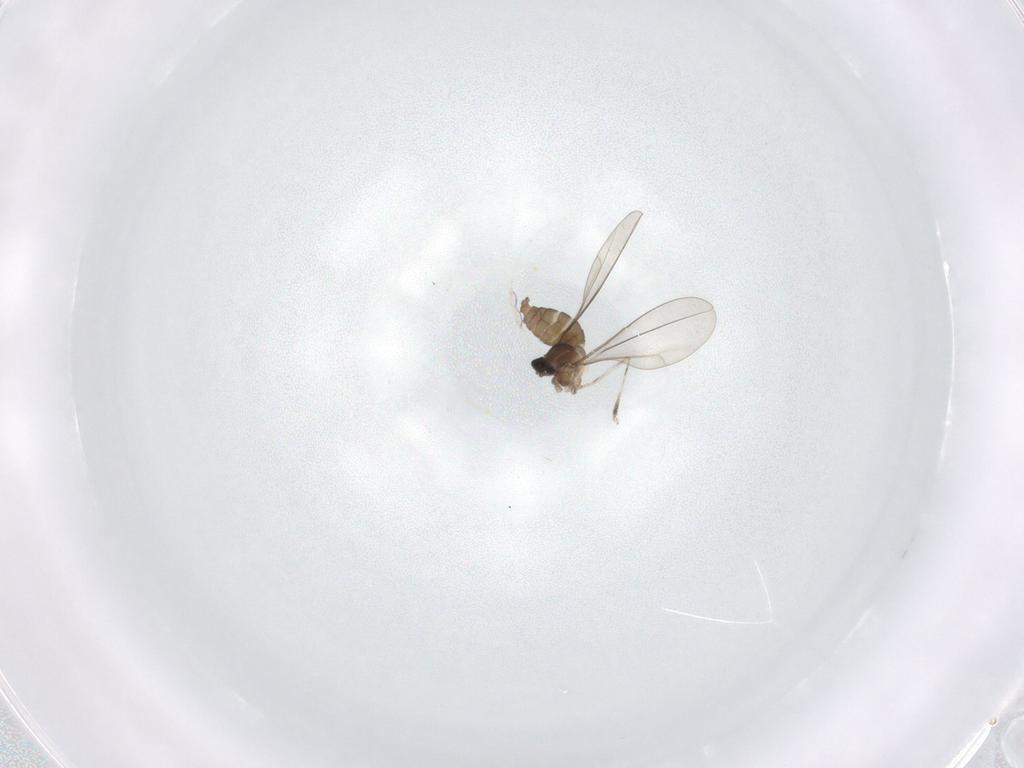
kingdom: Animalia
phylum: Arthropoda
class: Insecta
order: Diptera
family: Cecidomyiidae
